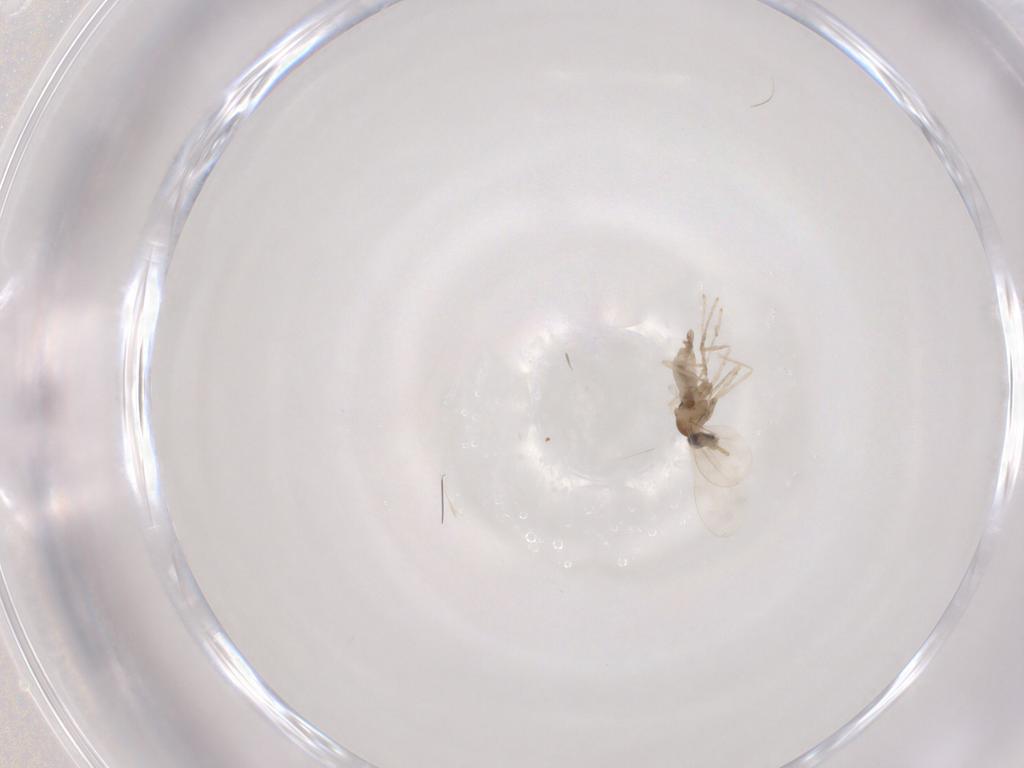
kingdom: Animalia
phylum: Arthropoda
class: Insecta
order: Diptera
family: Cecidomyiidae
